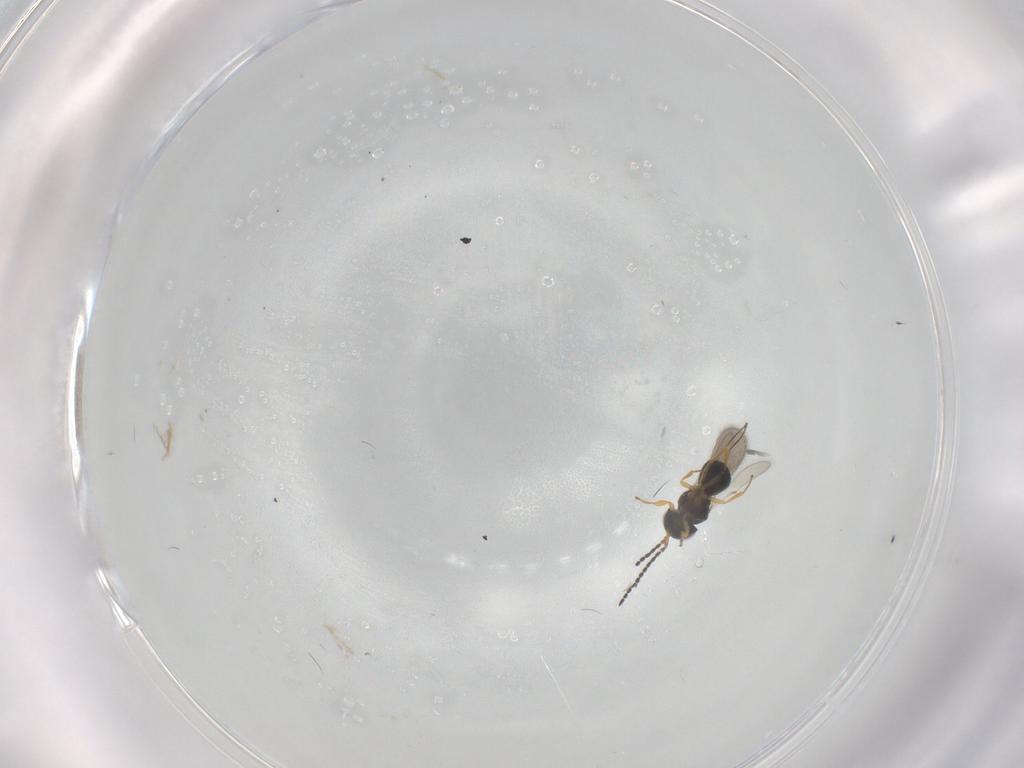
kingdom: Animalia
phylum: Arthropoda
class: Insecta
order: Hymenoptera
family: Scelionidae
